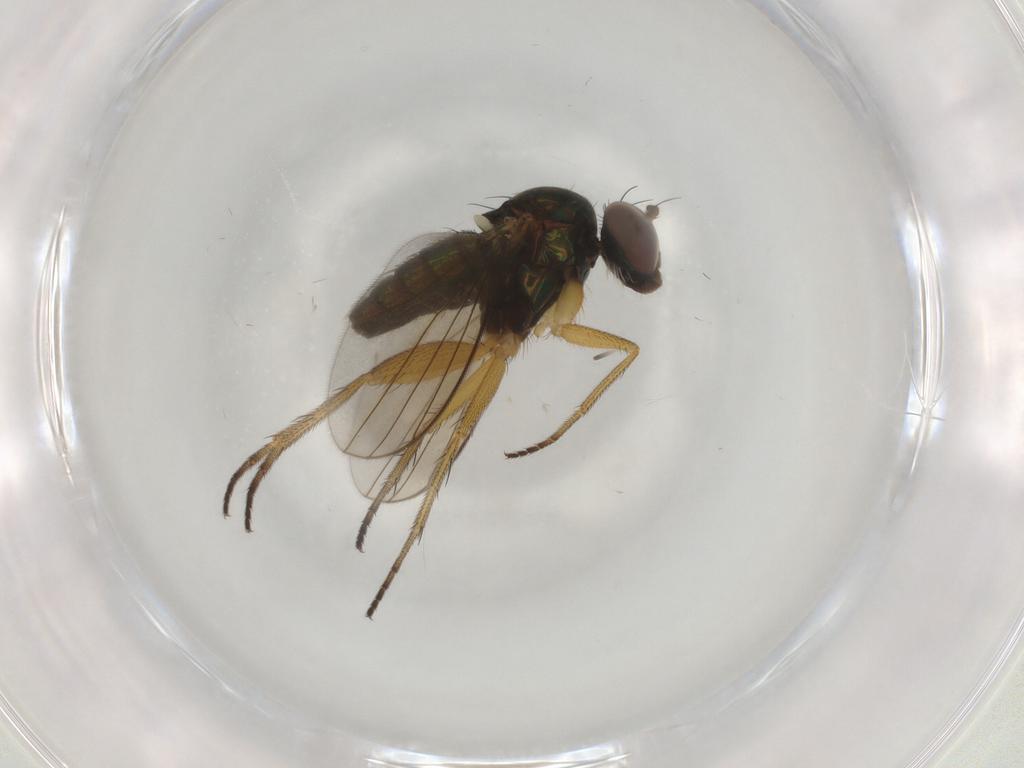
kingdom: Animalia
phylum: Arthropoda
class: Insecta
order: Diptera
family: Dolichopodidae
